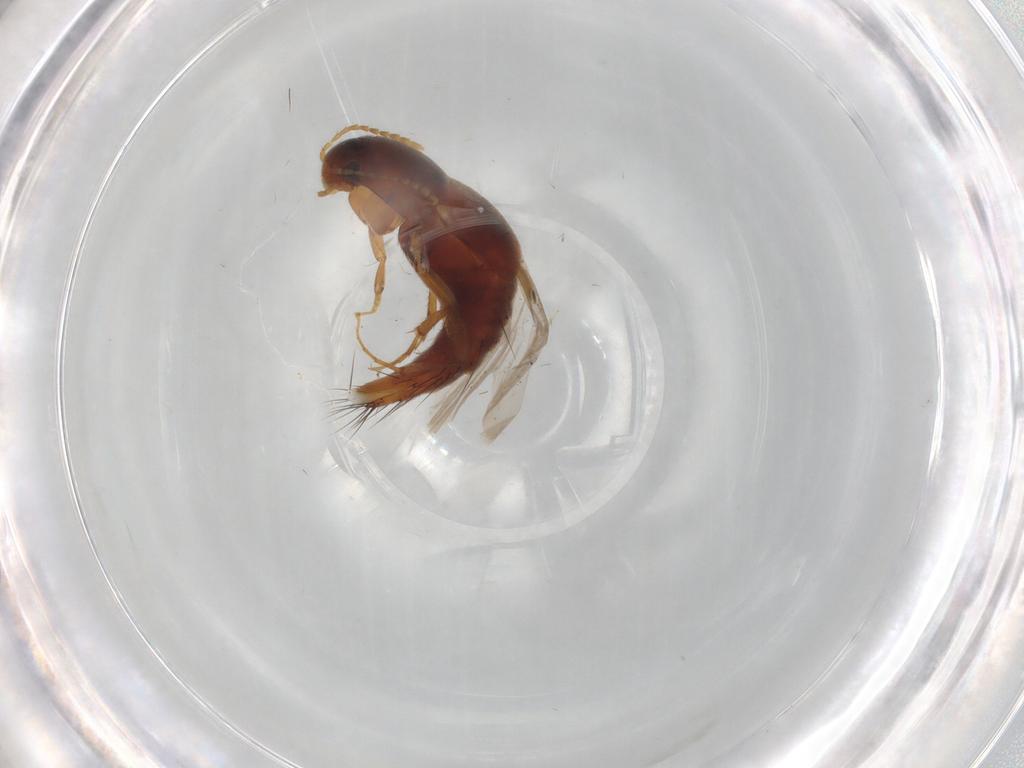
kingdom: Animalia
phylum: Arthropoda
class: Insecta
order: Coleoptera
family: Staphylinidae
